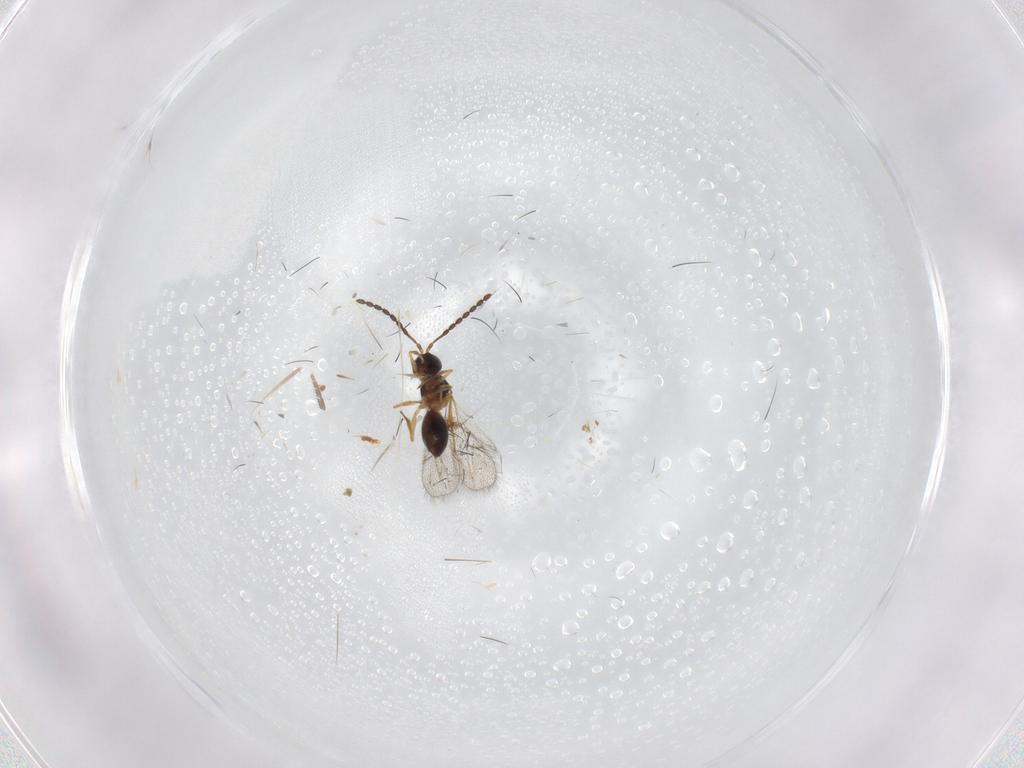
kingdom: Animalia
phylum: Arthropoda
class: Insecta
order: Hymenoptera
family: Figitidae
